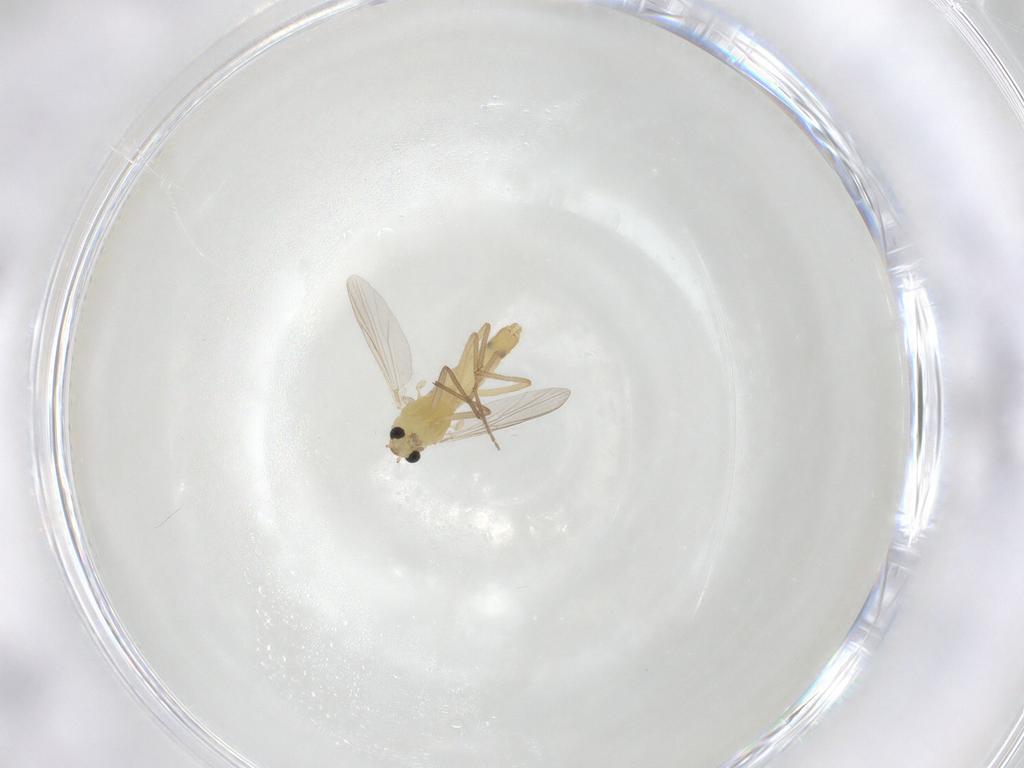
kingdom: Animalia
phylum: Arthropoda
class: Insecta
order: Diptera
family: Chironomidae
